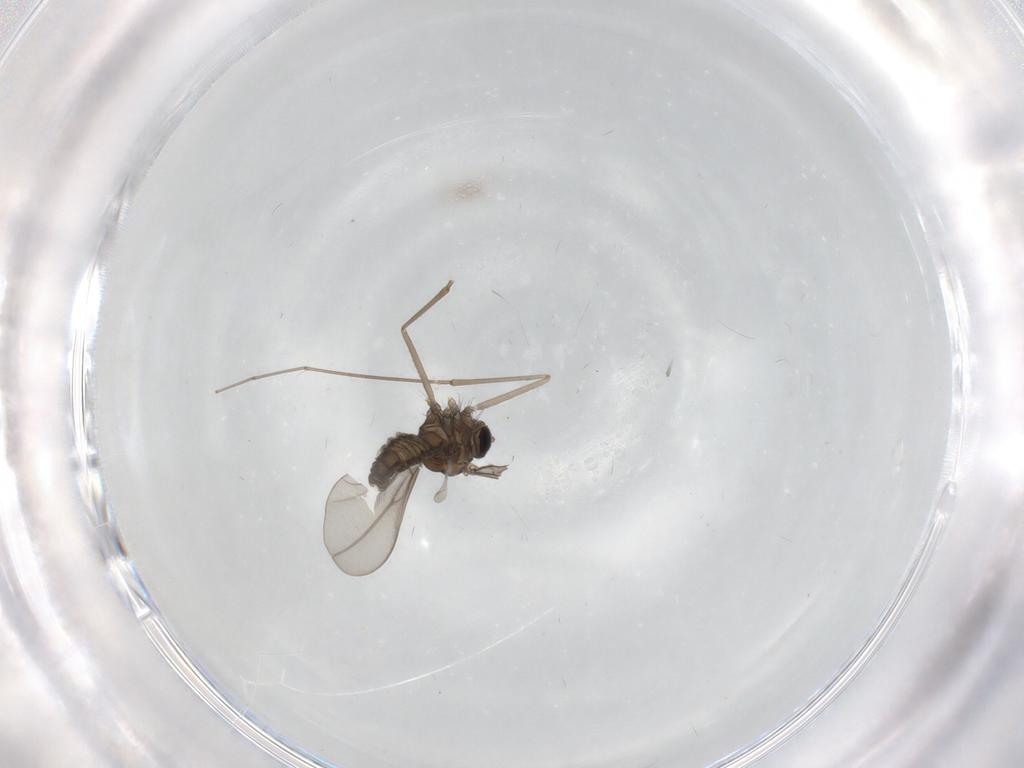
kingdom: Animalia
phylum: Arthropoda
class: Insecta
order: Diptera
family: Phoridae
